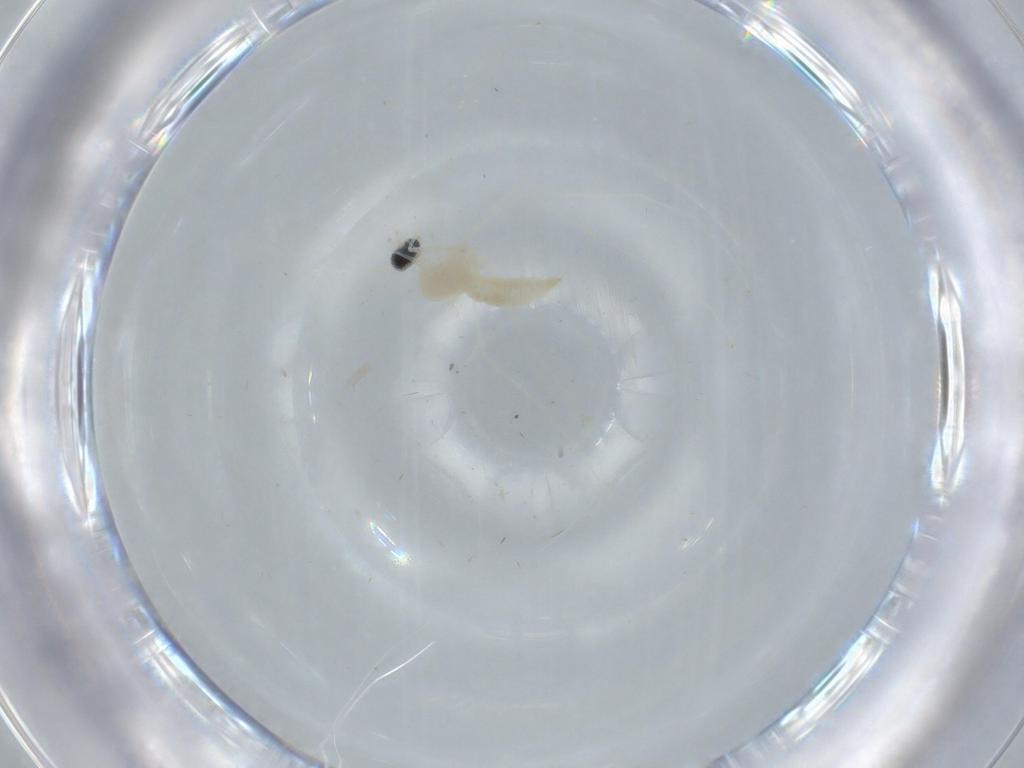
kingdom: Animalia
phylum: Arthropoda
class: Insecta
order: Diptera
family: Cecidomyiidae
